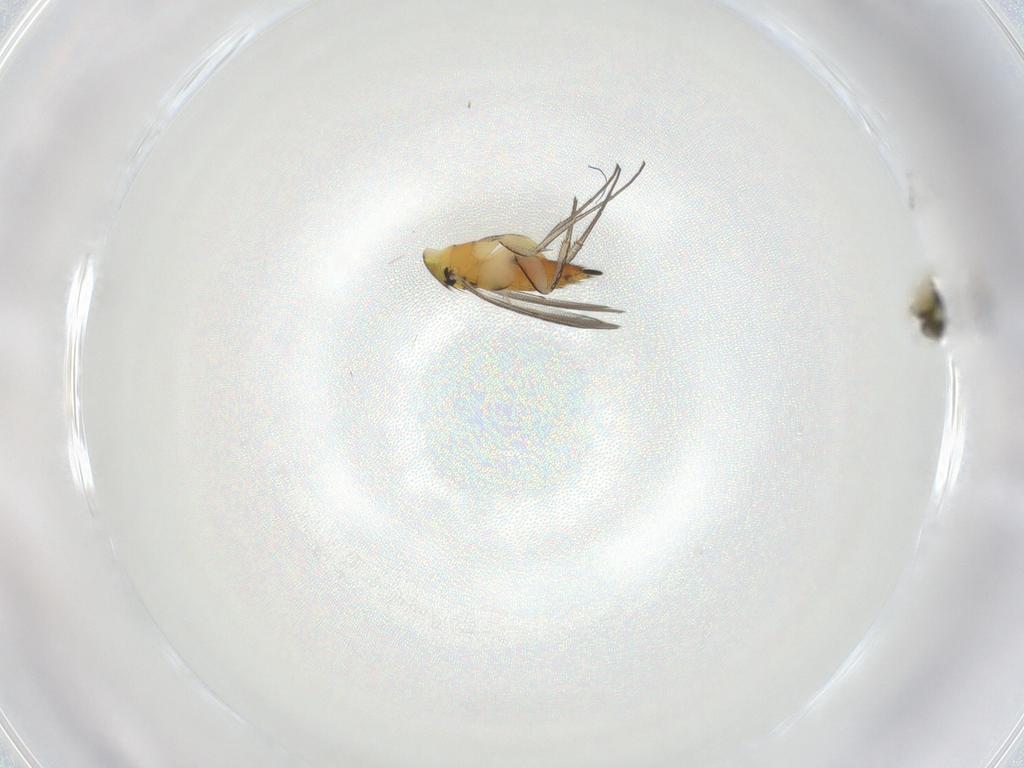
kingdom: Animalia
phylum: Arthropoda
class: Insecta
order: Hymenoptera
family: Eulophidae
